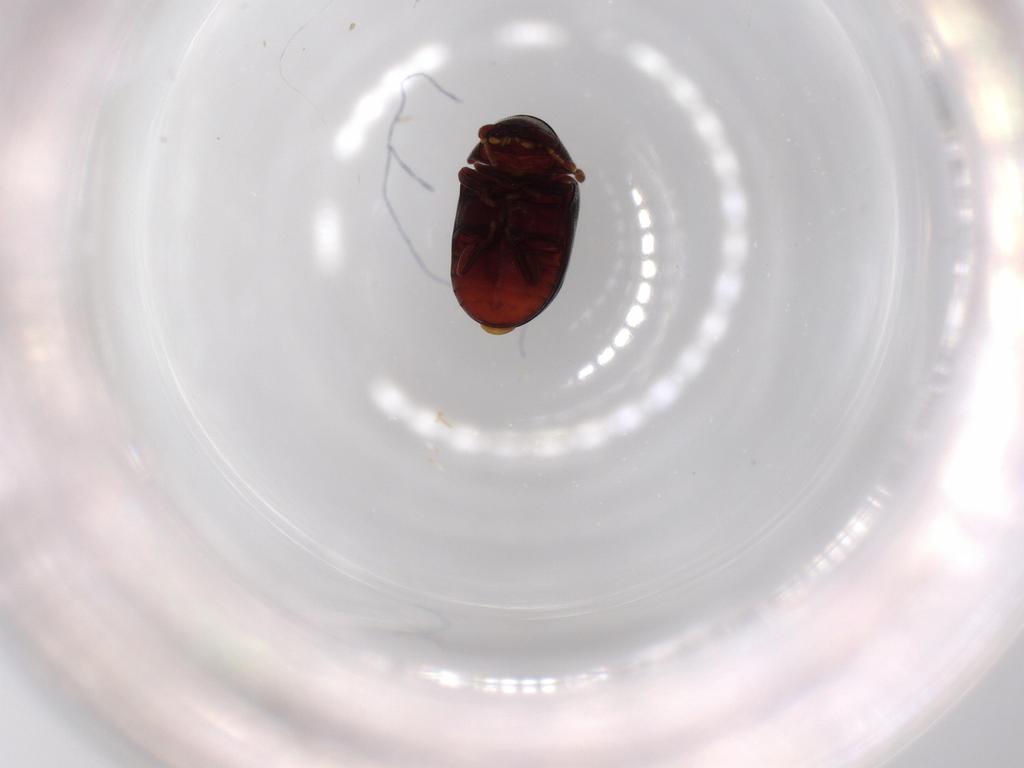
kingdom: Animalia
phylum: Arthropoda
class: Insecta
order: Coleoptera
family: Ptinidae
